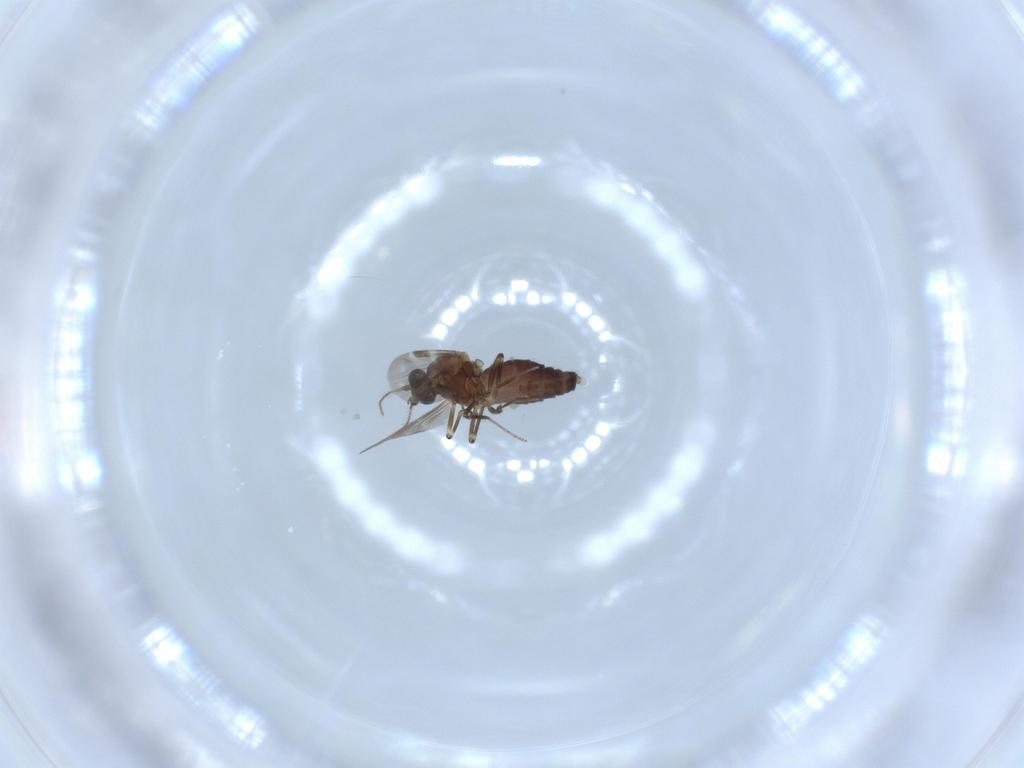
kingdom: Animalia
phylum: Arthropoda
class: Insecta
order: Diptera
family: Ceratopogonidae
